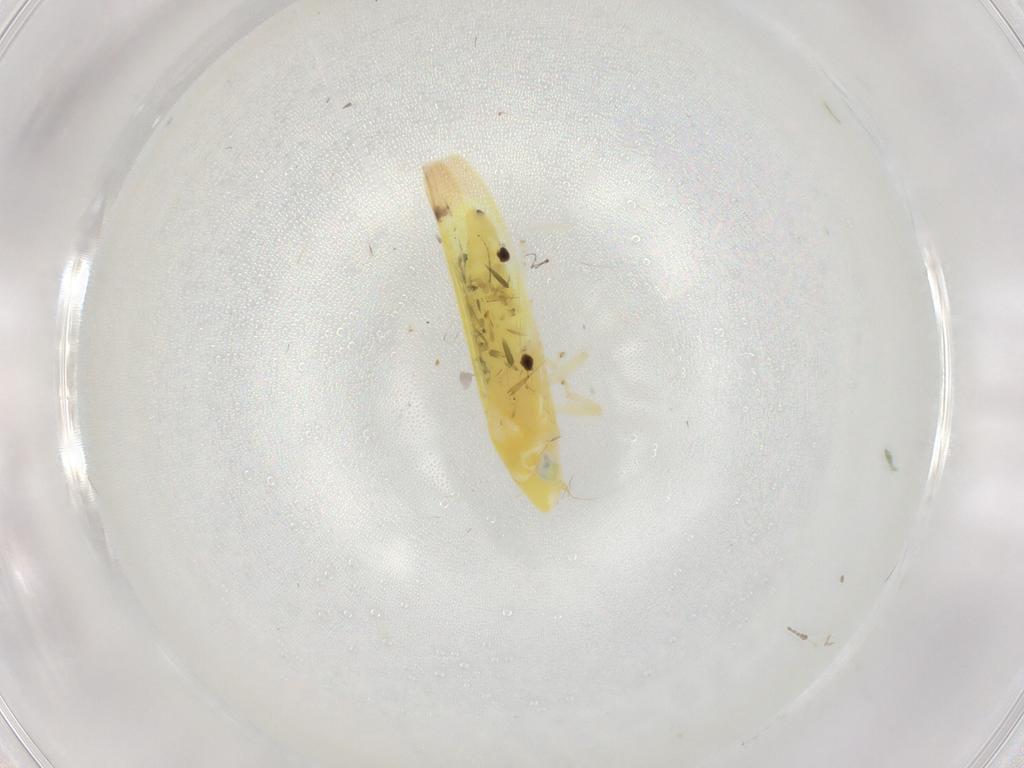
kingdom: Animalia
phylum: Arthropoda
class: Insecta
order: Hemiptera
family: Cicadellidae
